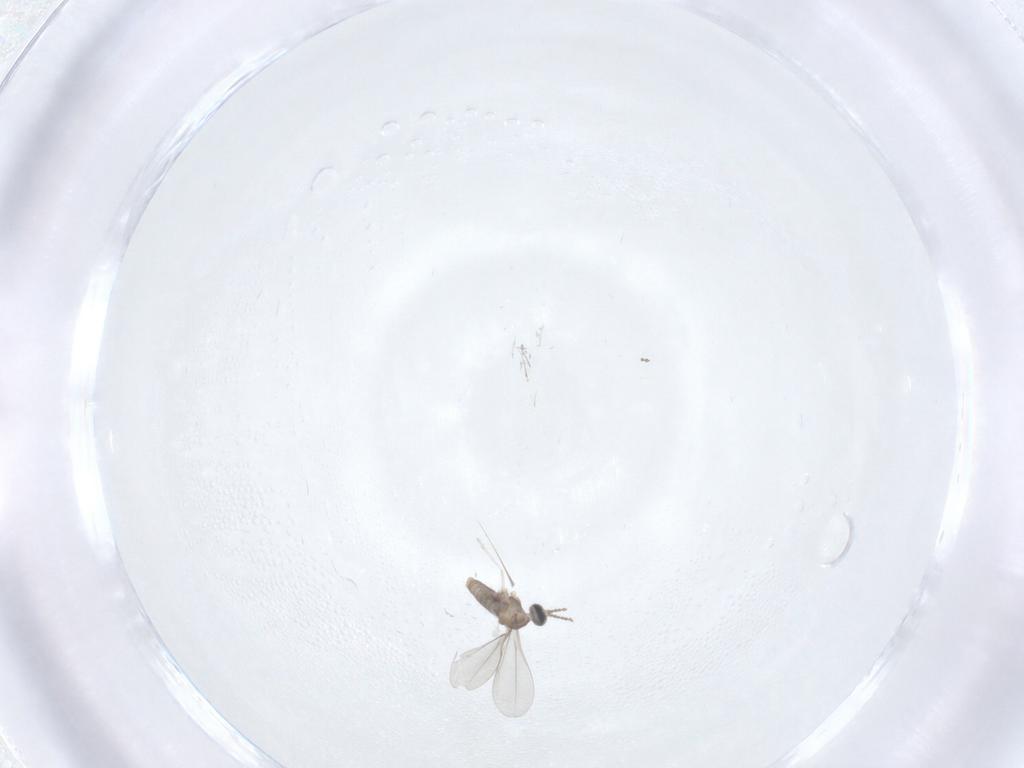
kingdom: Animalia
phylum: Arthropoda
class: Insecta
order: Diptera
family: Cecidomyiidae
